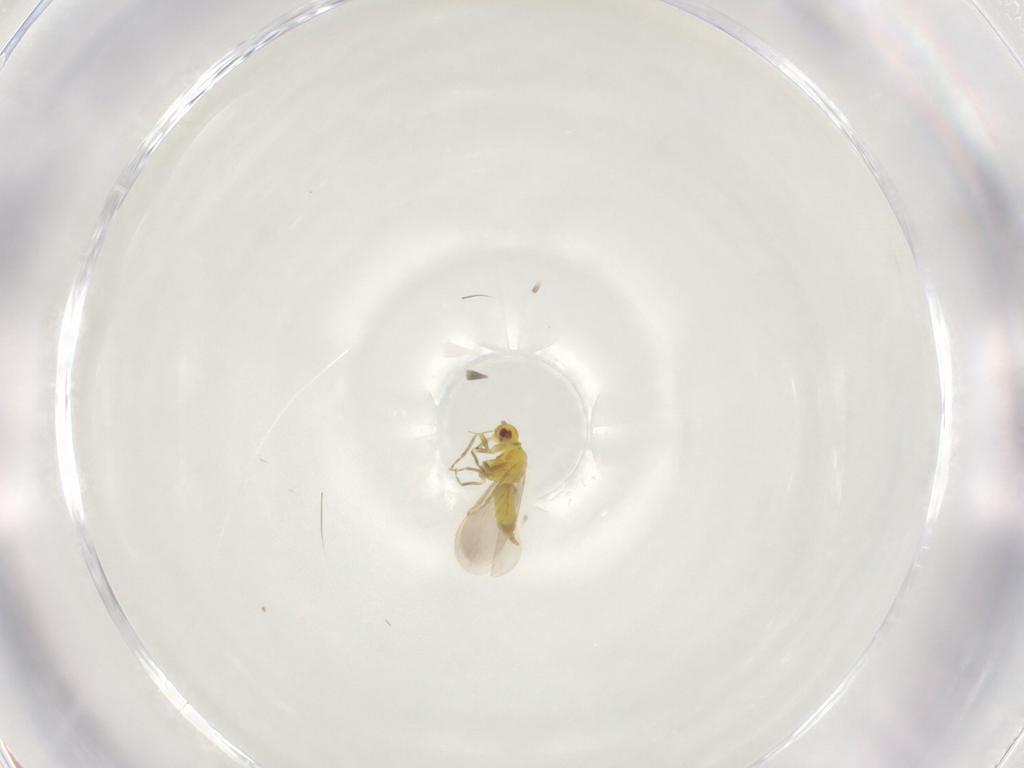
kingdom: Animalia
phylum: Arthropoda
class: Insecta
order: Hemiptera
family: Aleyrodidae
